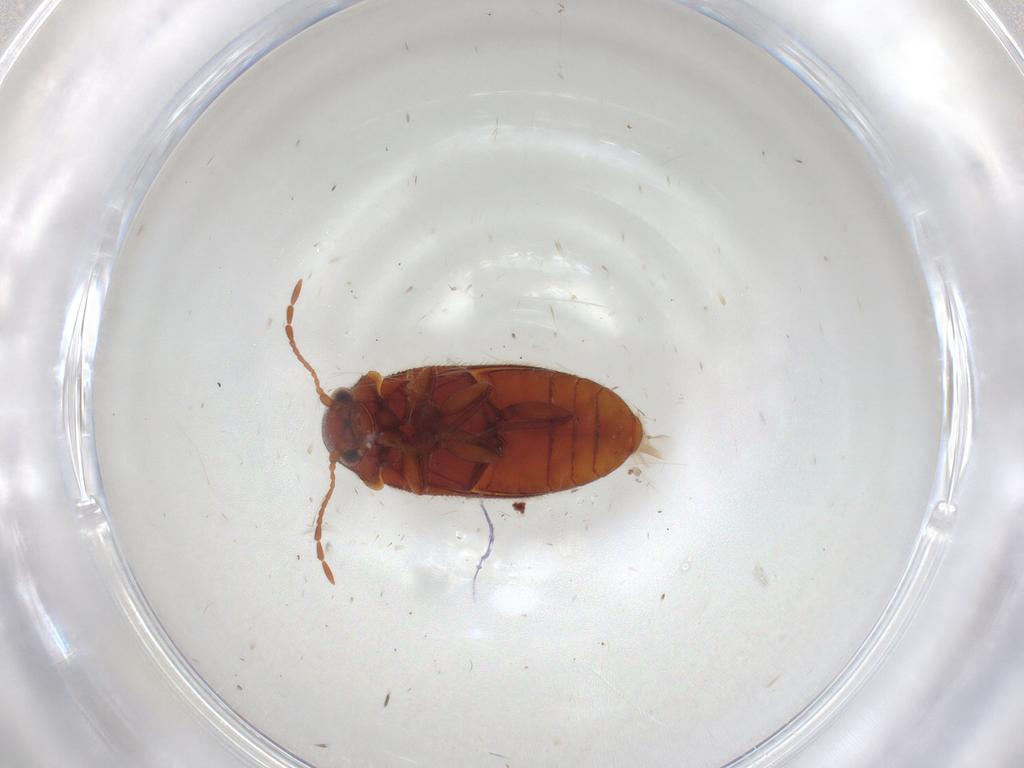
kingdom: Animalia
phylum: Arthropoda
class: Insecta
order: Coleoptera
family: Ptinidae
